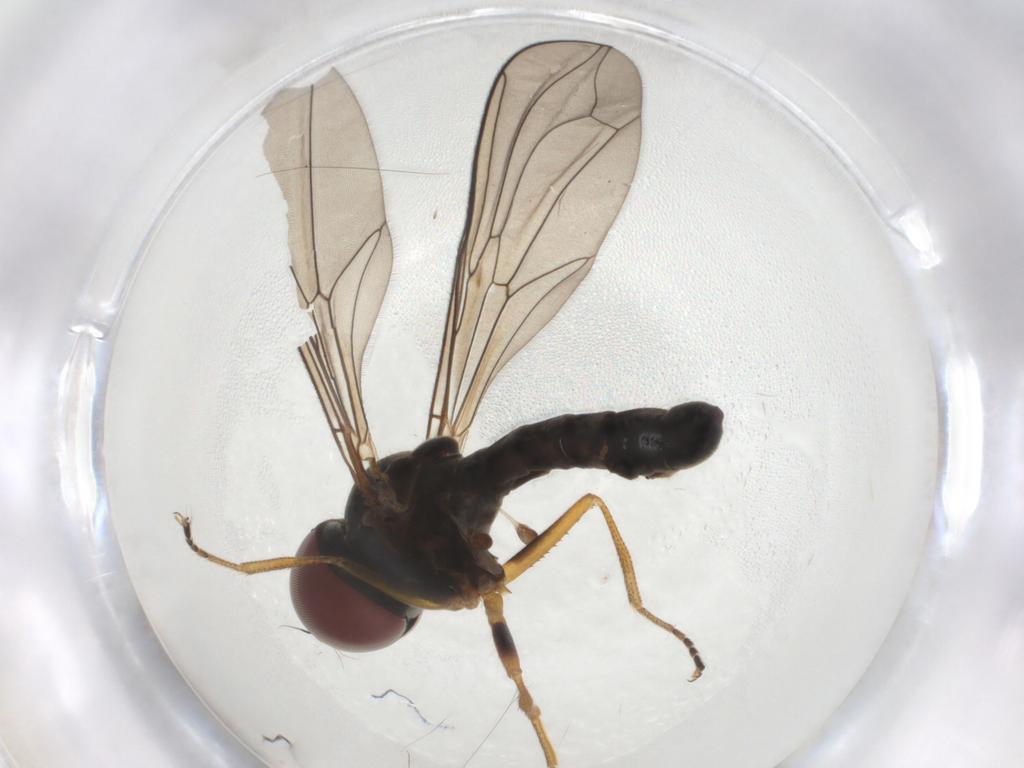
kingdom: Animalia
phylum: Arthropoda
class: Insecta
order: Diptera
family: Pipunculidae
